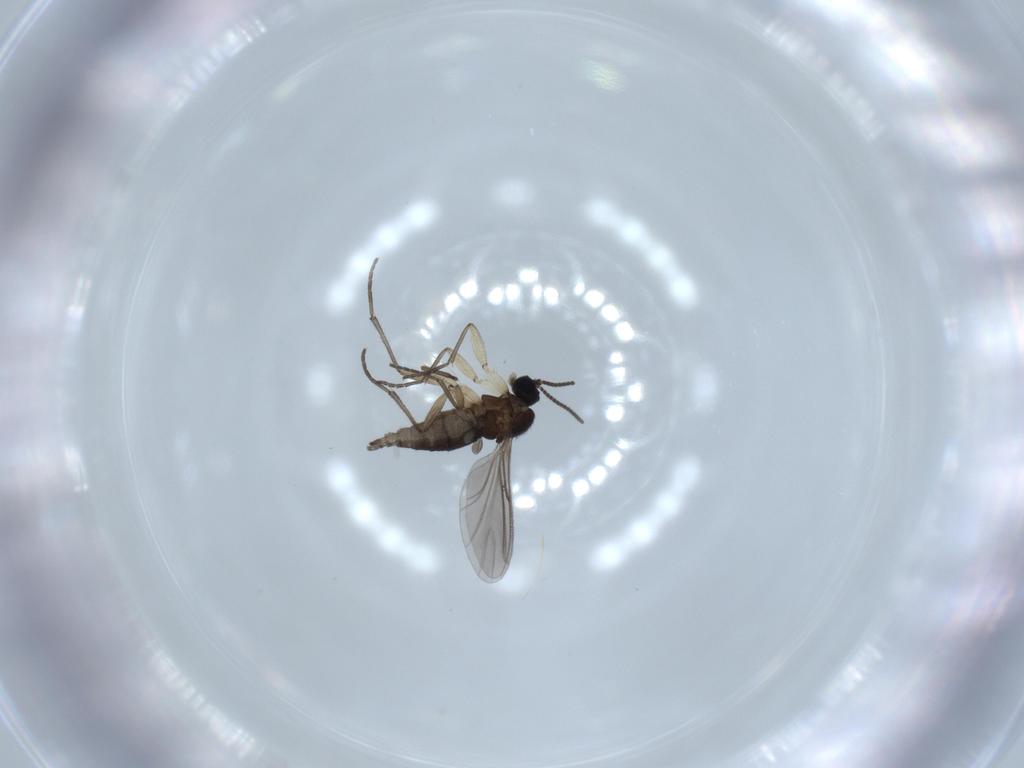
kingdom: Animalia
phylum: Arthropoda
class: Insecta
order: Diptera
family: Sciaridae
